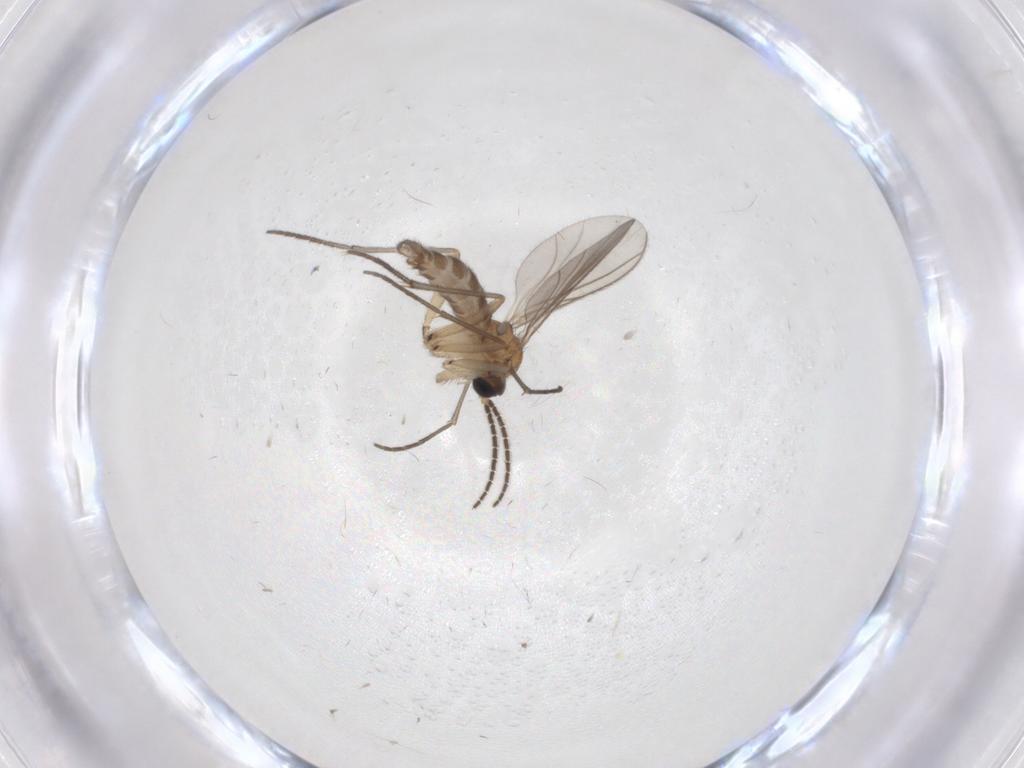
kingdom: Animalia
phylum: Arthropoda
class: Insecta
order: Diptera
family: Sciaridae
